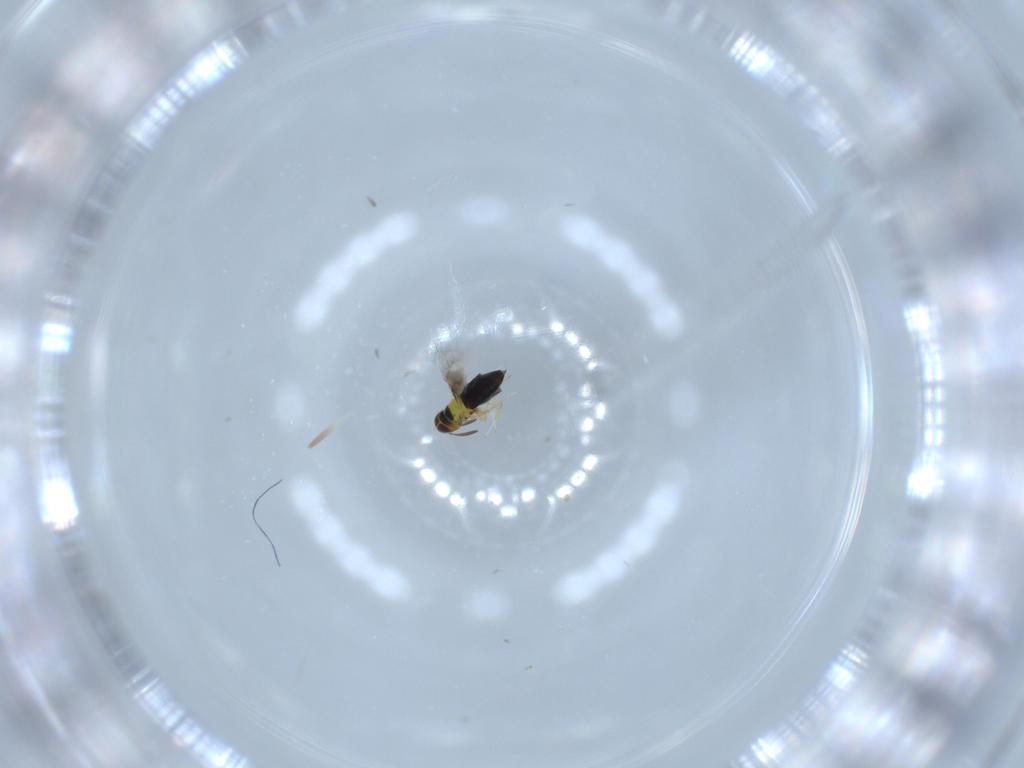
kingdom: Animalia
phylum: Arthropoda
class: Insecta
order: Hymenoptera
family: Signiphoridae
